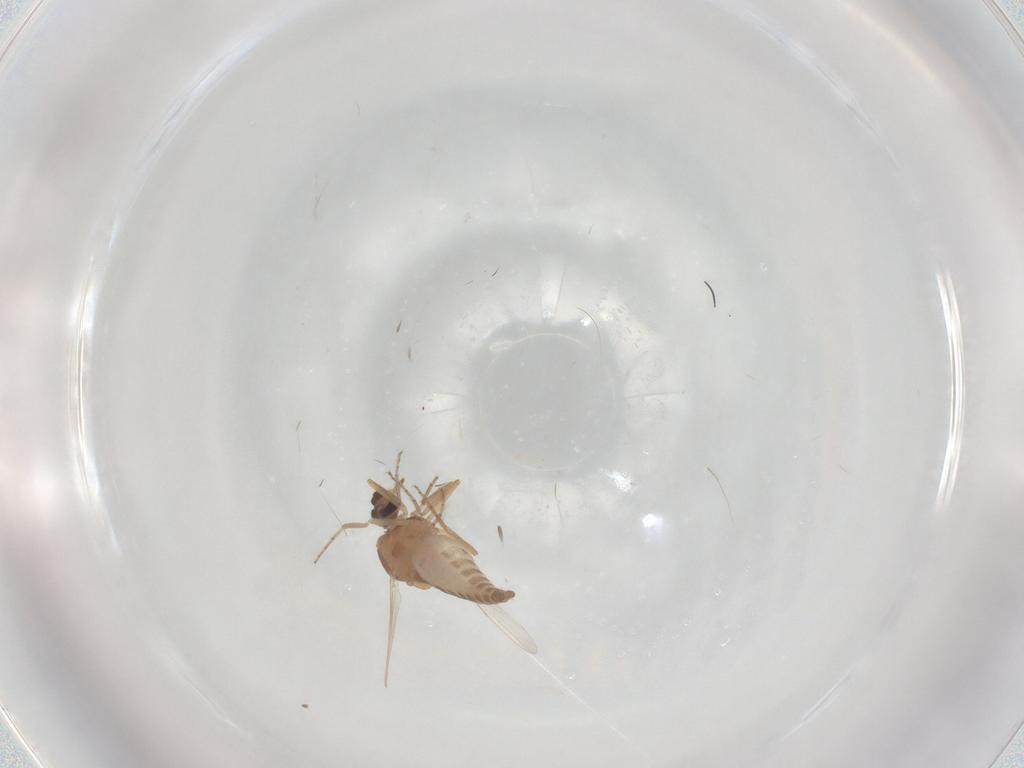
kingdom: Animalia
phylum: Arthropoda
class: Insecta
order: Diptera
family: Ceratopogonidae
